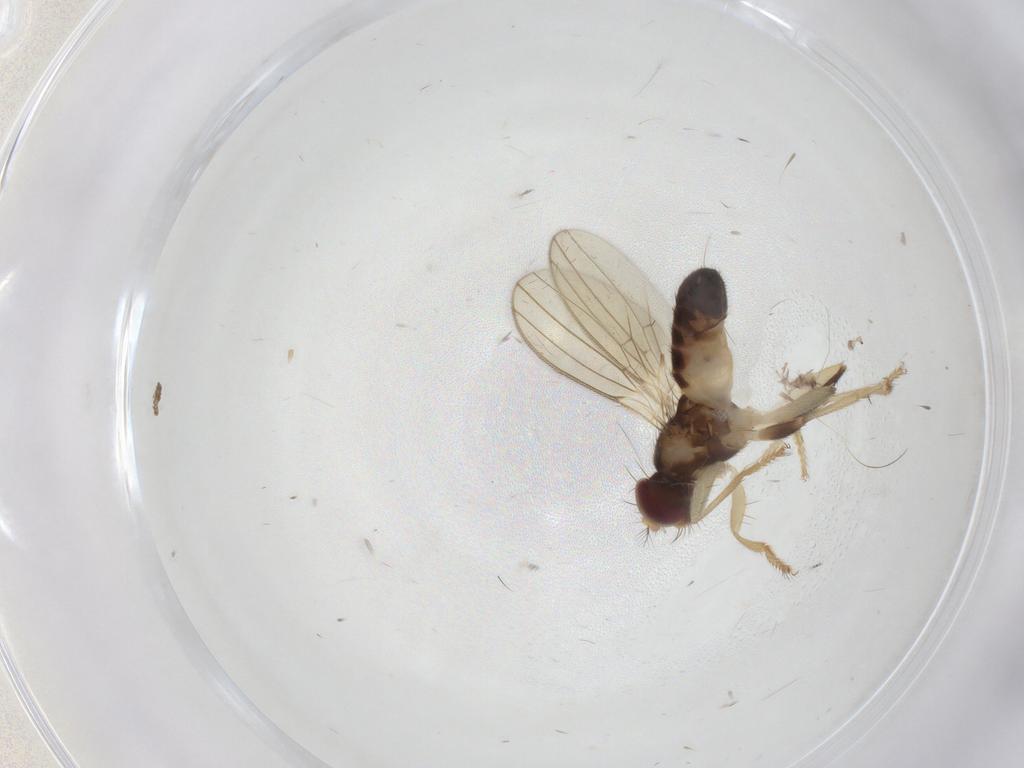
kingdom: Animalia
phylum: Arthropoda
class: Insecta
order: Diptera
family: Periscelididae
